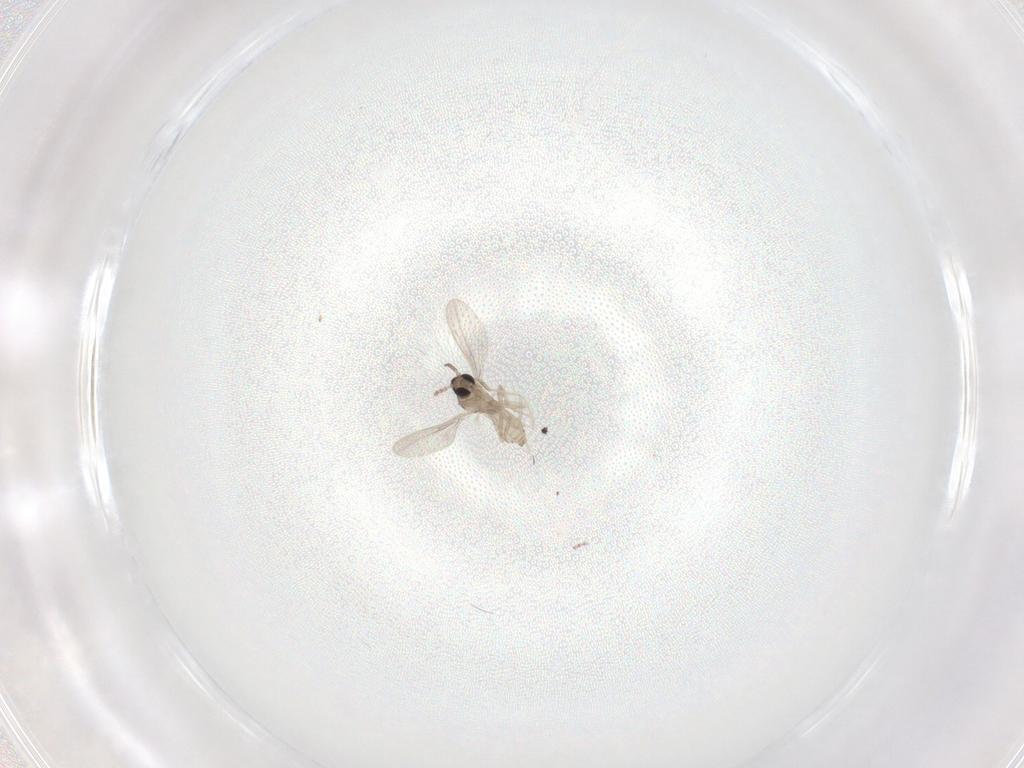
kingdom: Animalia
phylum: Arthropoda
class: Insecta
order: Diptera
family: Cecidomyiidae
